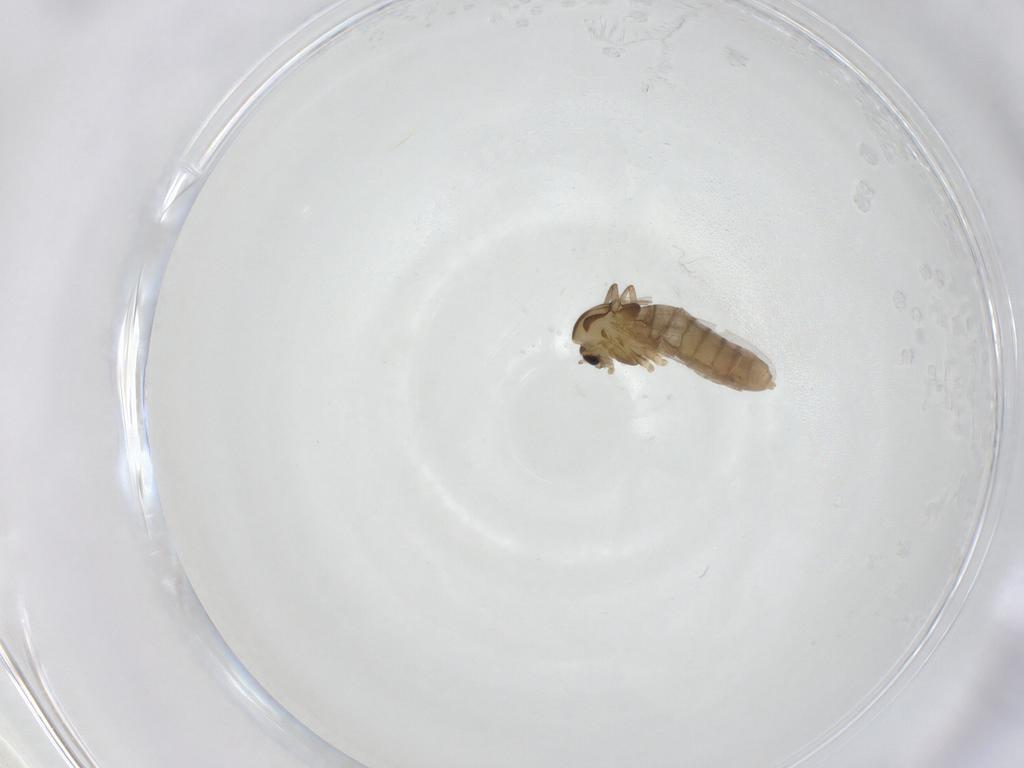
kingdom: Animalia
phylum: Arthropoda
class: Insecta
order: Diptera
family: Chironomidae
